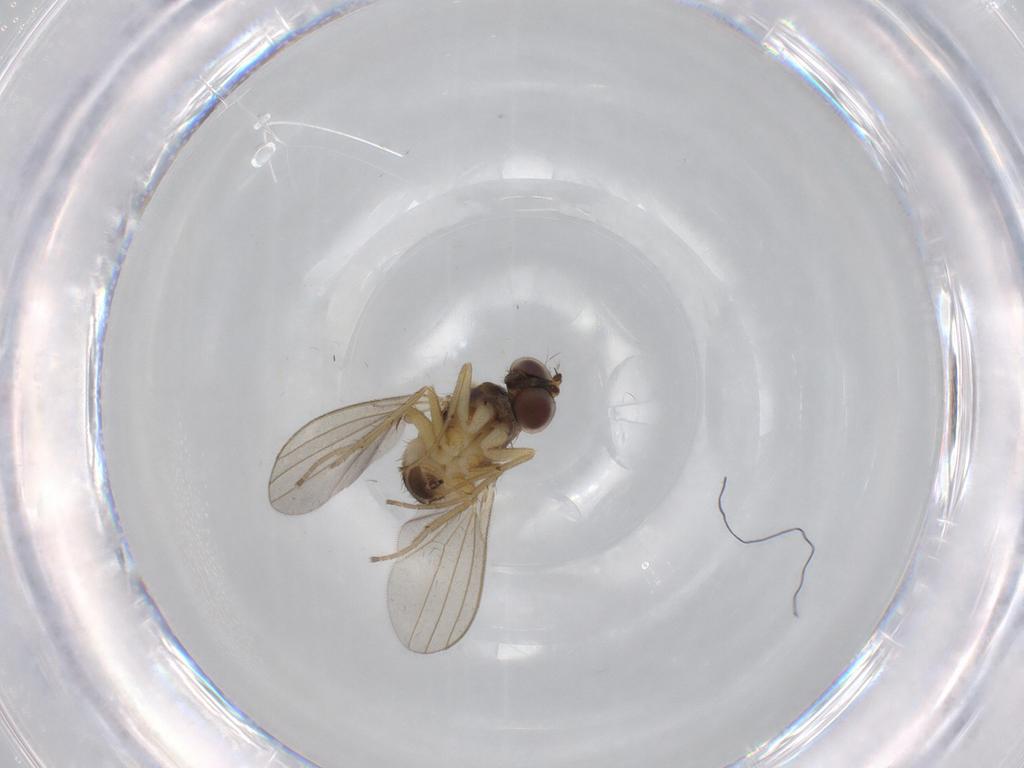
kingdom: Animalia
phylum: Arthropoda
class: Insecta
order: Diptera
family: Dolichopodidae
